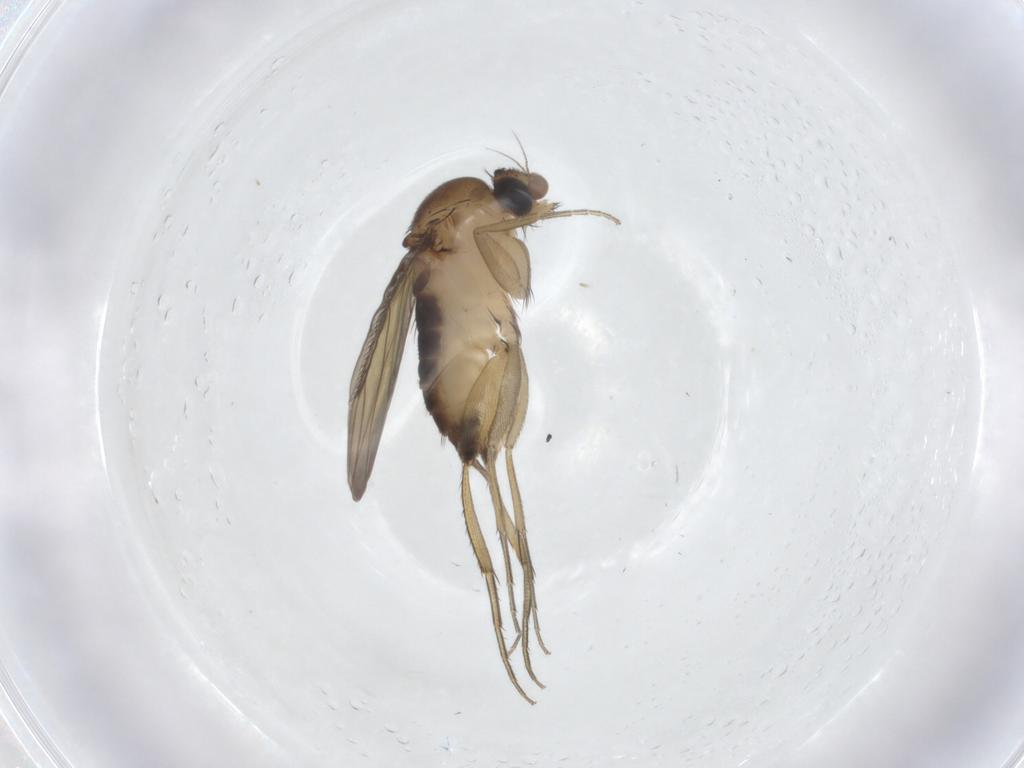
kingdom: Animalia
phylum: Arthropoda
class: Insecta
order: Diptera
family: Phoridae
